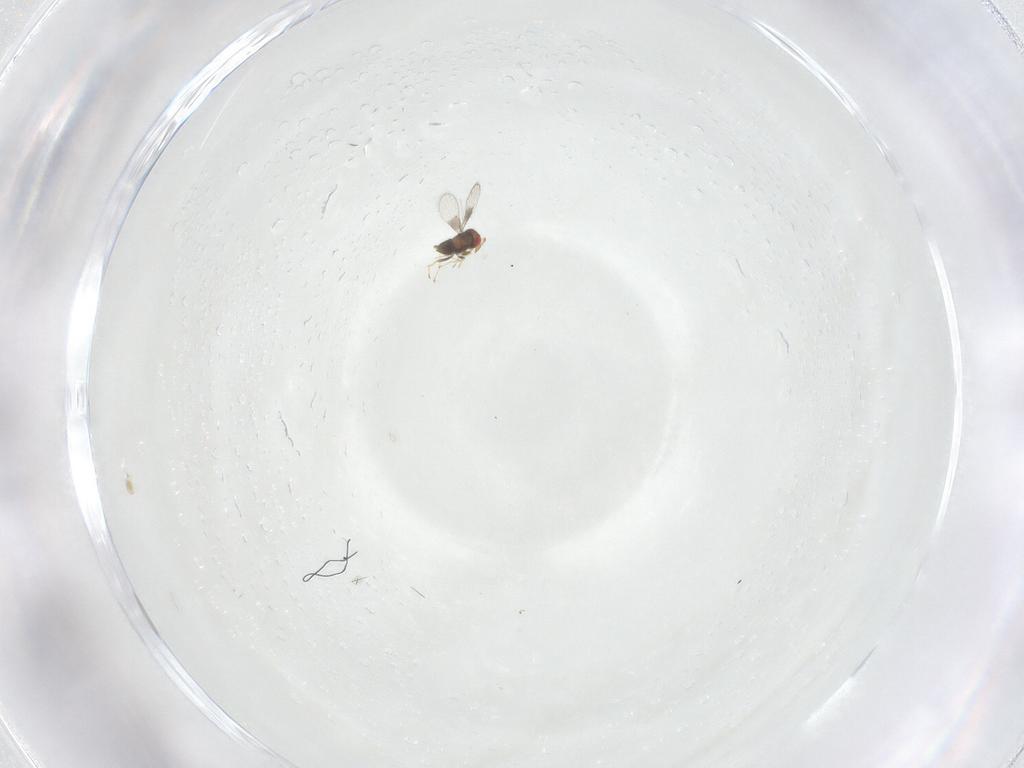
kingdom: Animalia
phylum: Arthropoda
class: Insecta
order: Hymenoptera
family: Trichogrammatidae
